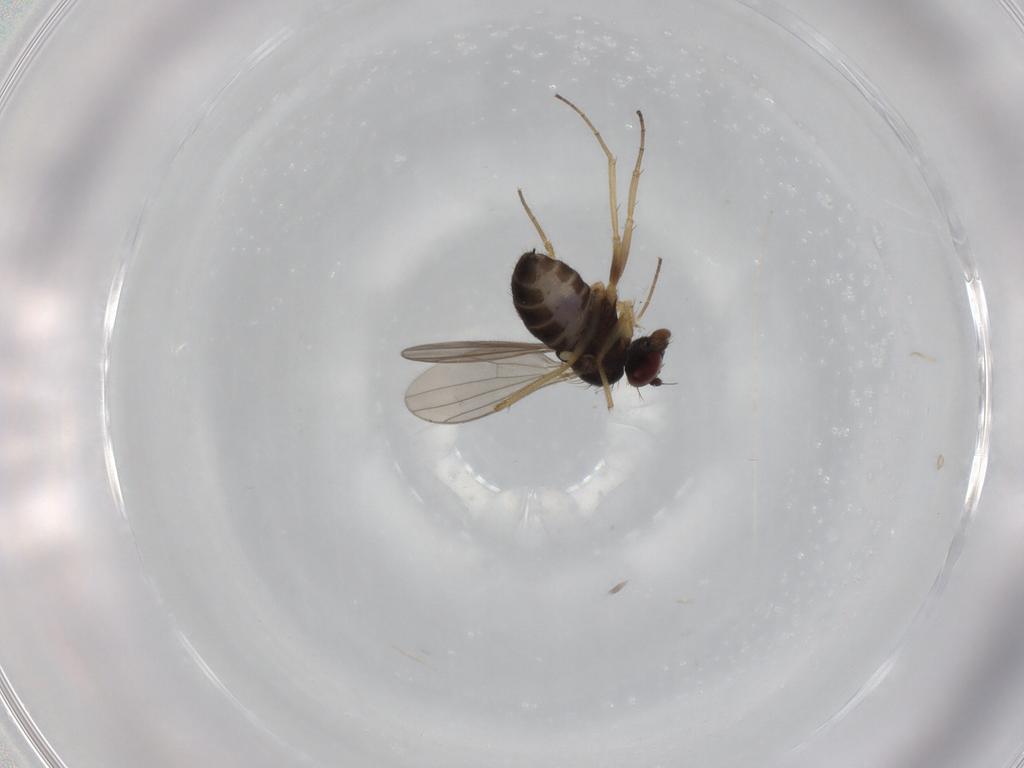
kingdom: Animalia
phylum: Arthropoda
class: Insecta
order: Diptera
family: Dolichopodidae
